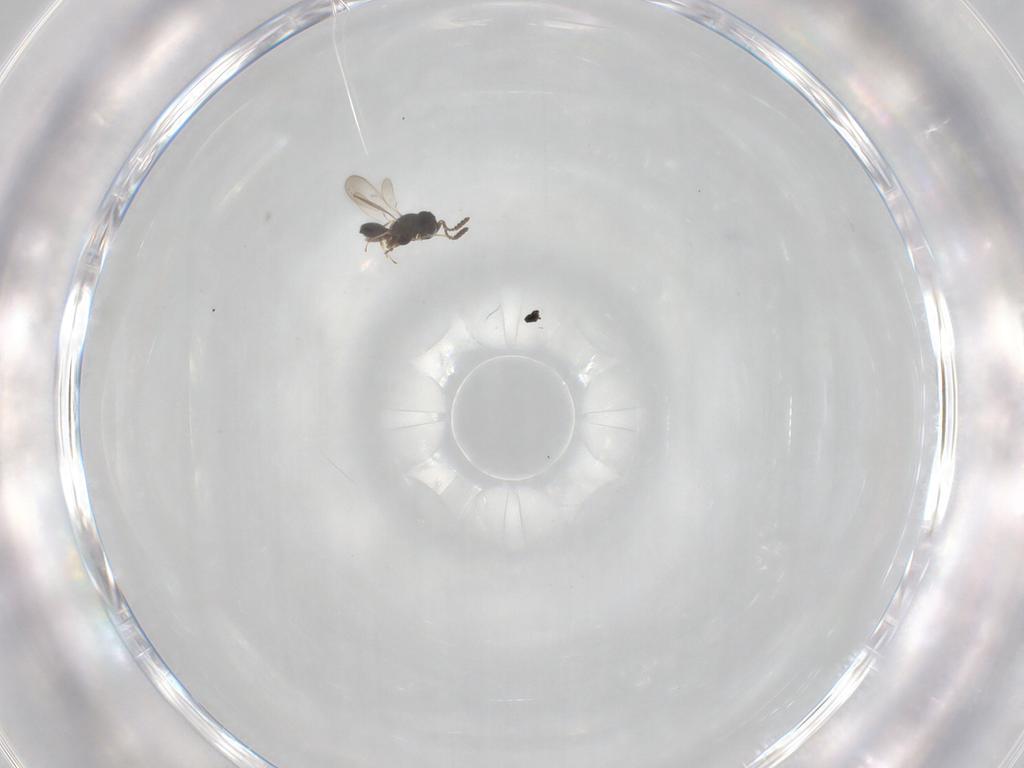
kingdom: Animalia
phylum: Arthropoda
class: Insecta
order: Hymenoptera
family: Scelionidae
